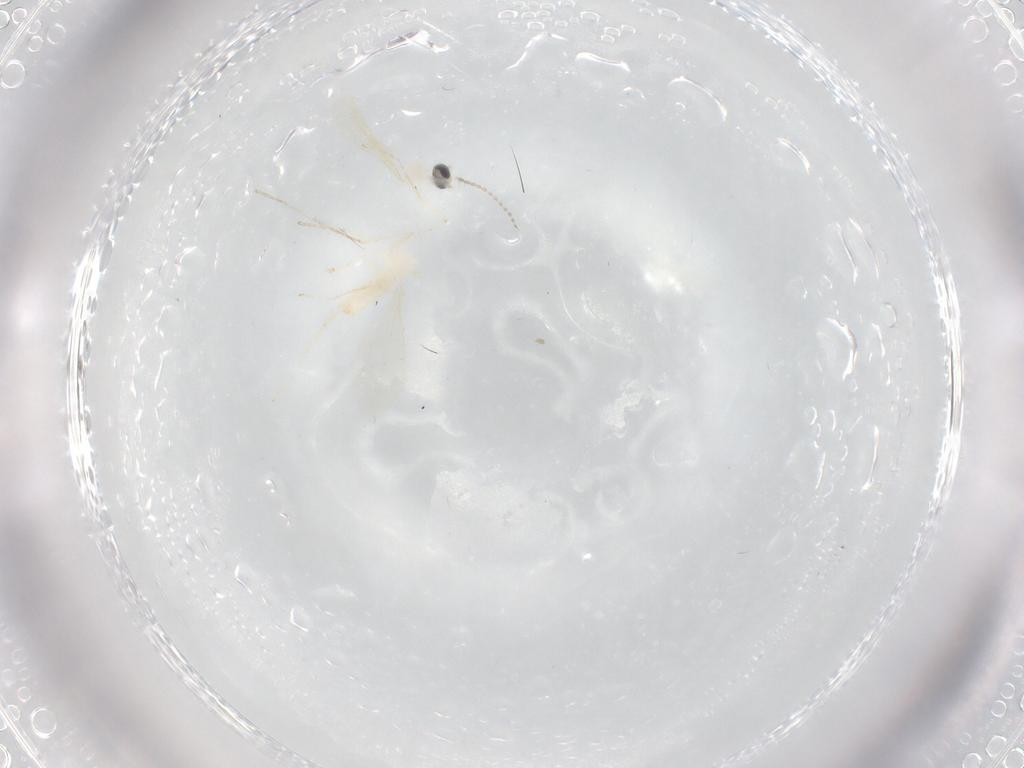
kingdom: Animalia
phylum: Arthropoda
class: Insecta
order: Diptera
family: Cecidomyiidae
